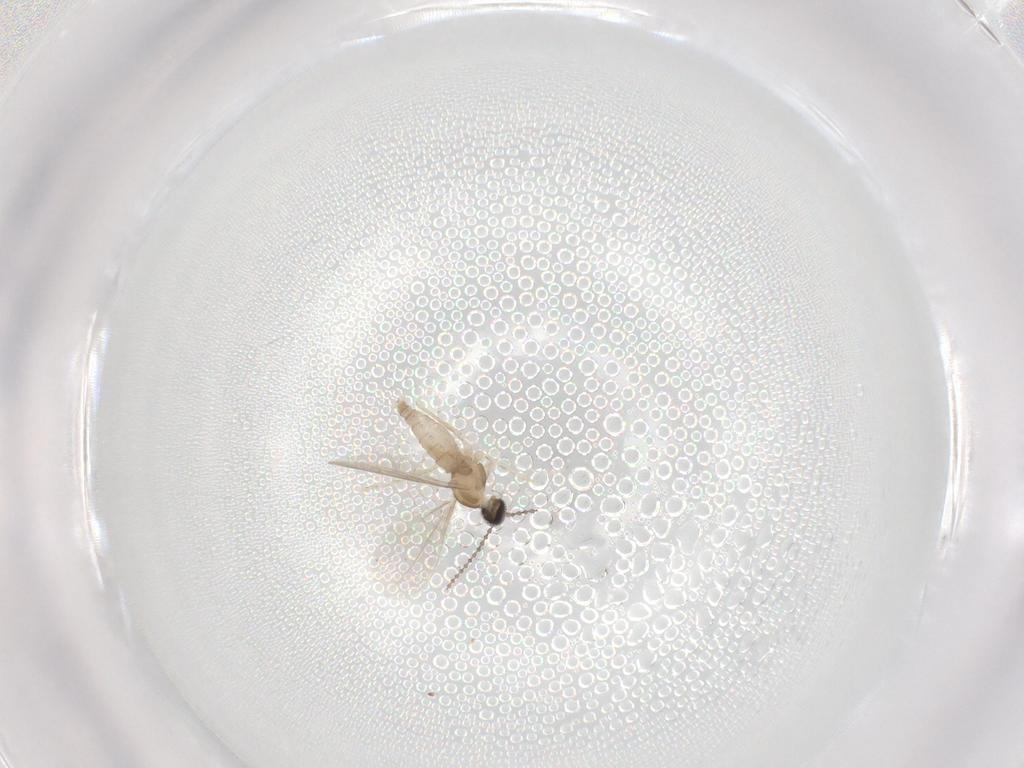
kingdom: Animalia
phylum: Arthropoda
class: Insecta
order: Diptera
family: Cecidomyiidae
